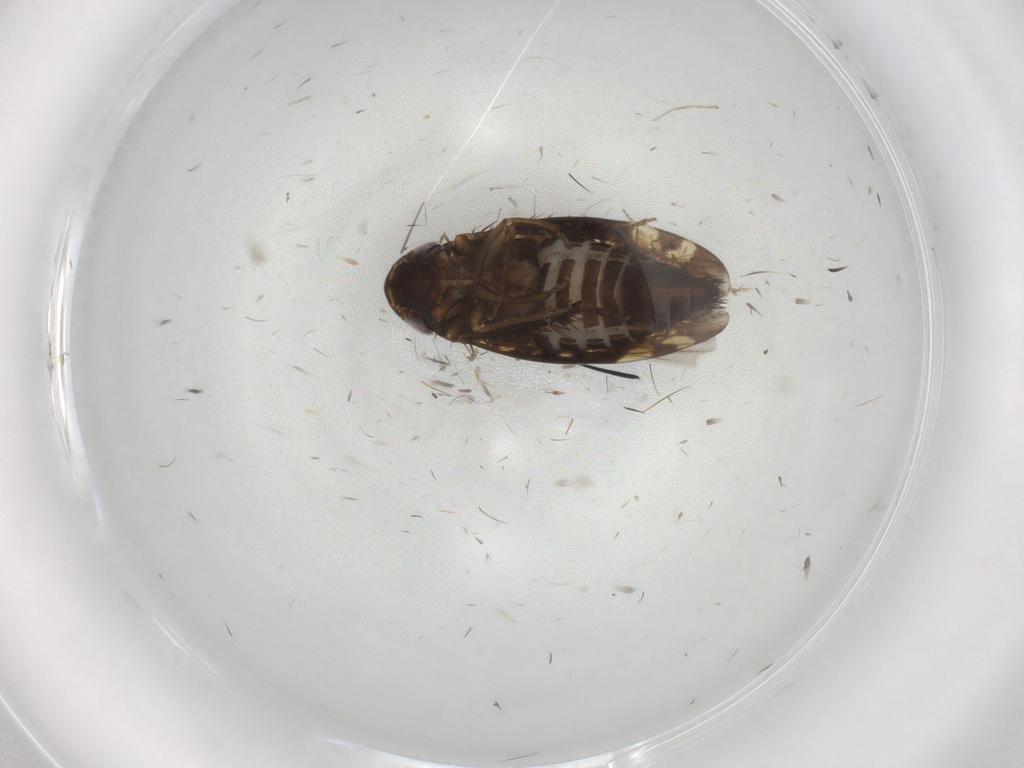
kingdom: Animalia
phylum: Arthropoda
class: Insecta
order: Hemiptera
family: Cicadellidae
